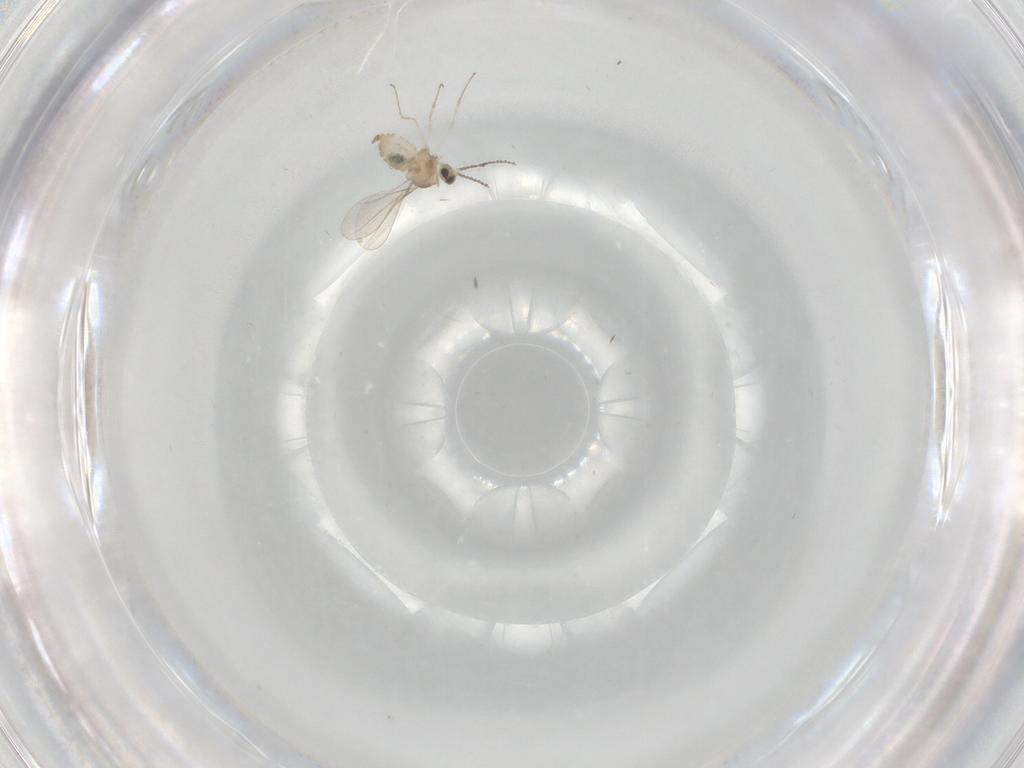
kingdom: Animalia
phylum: Arthropoda
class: Insecta
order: Diptera
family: Cecidomyiidae
